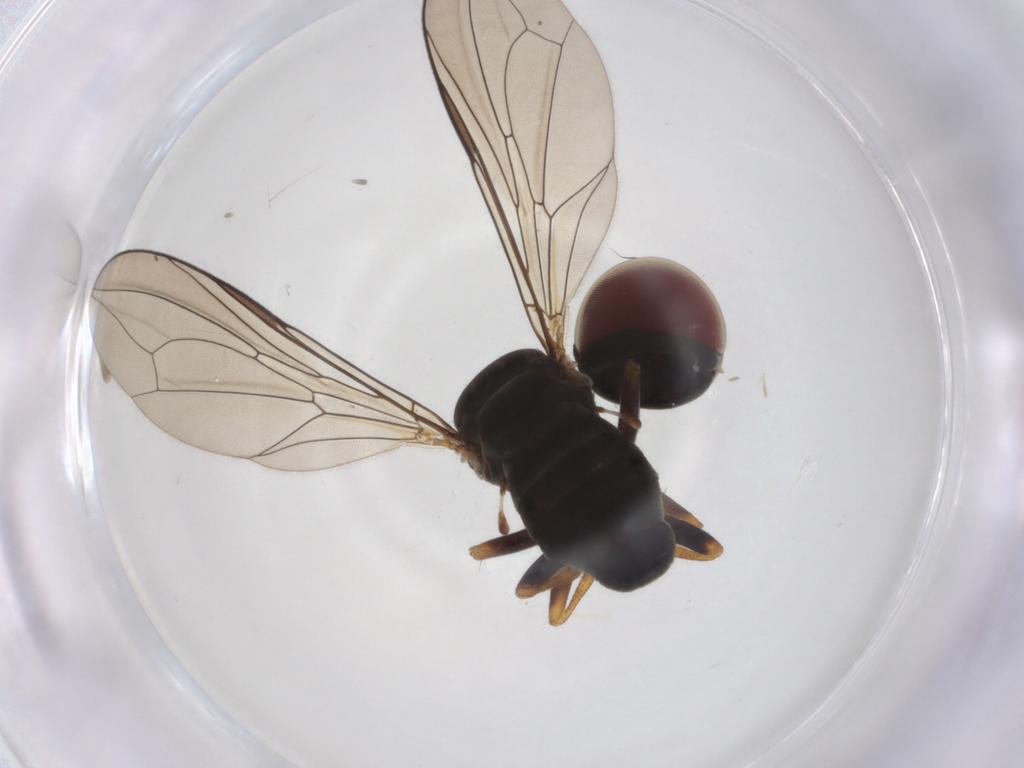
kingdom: Animalia
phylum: Arthropoda
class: Insecta
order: Diptera
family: Pipunculidae
